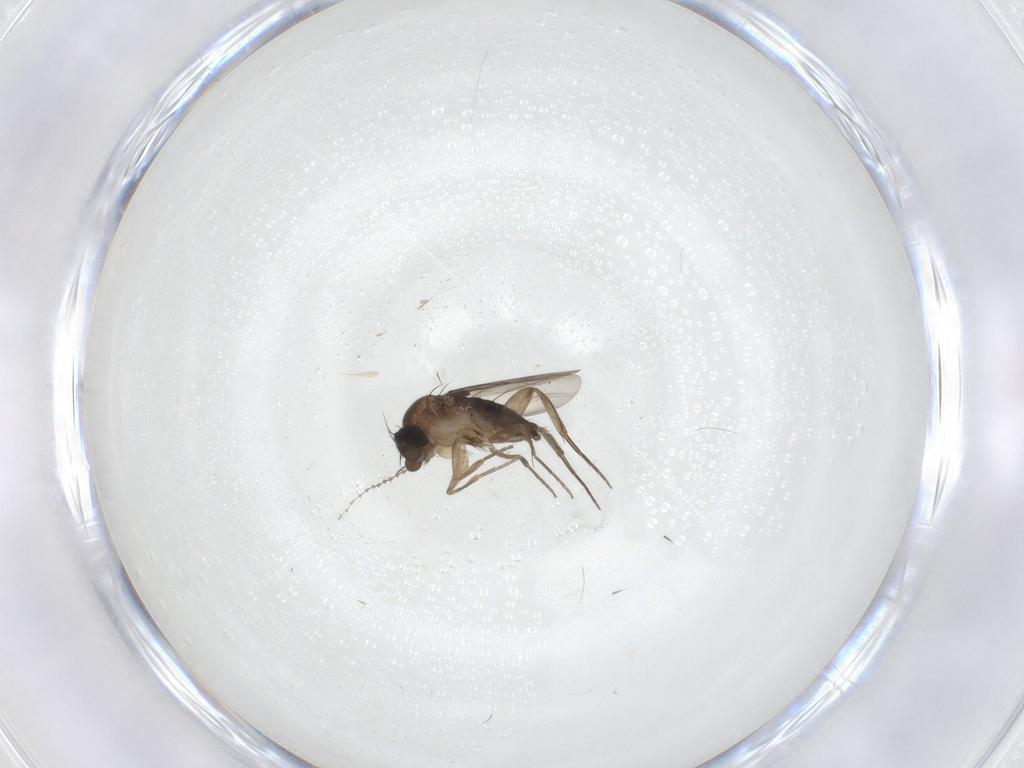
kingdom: Animalia
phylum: Arthropoda
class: Insecta
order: Diptera
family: Phoridae
